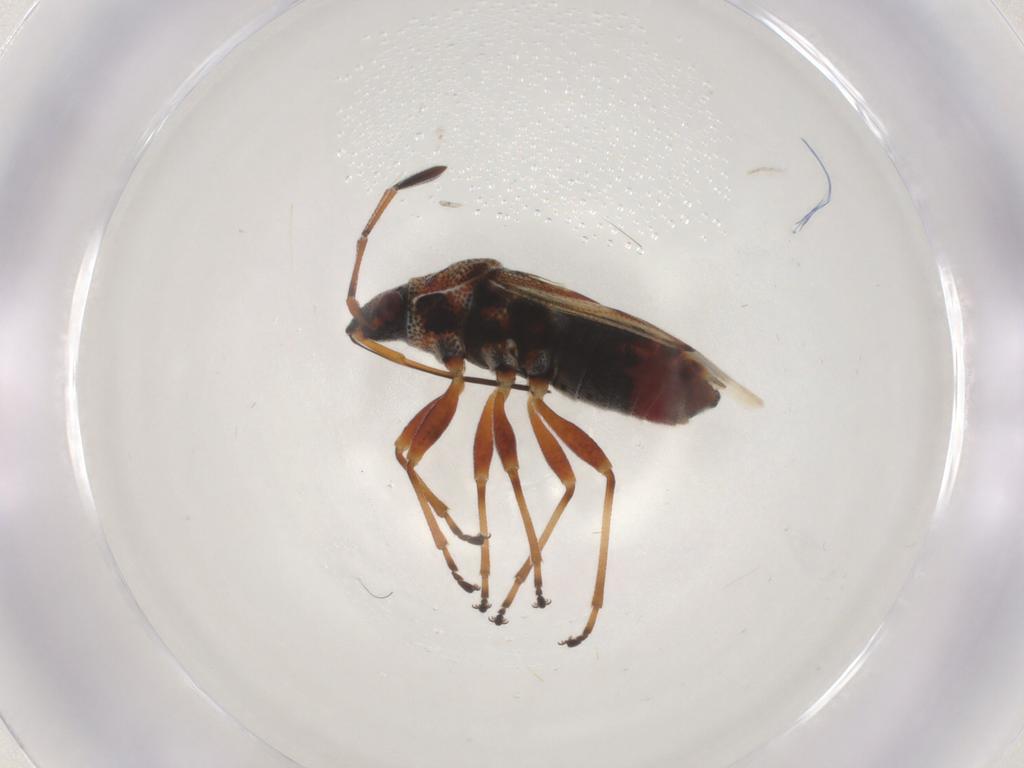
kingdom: Animalia
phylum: Arthropoda
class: Insecta
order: Hemiptera
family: Lygaeidae
